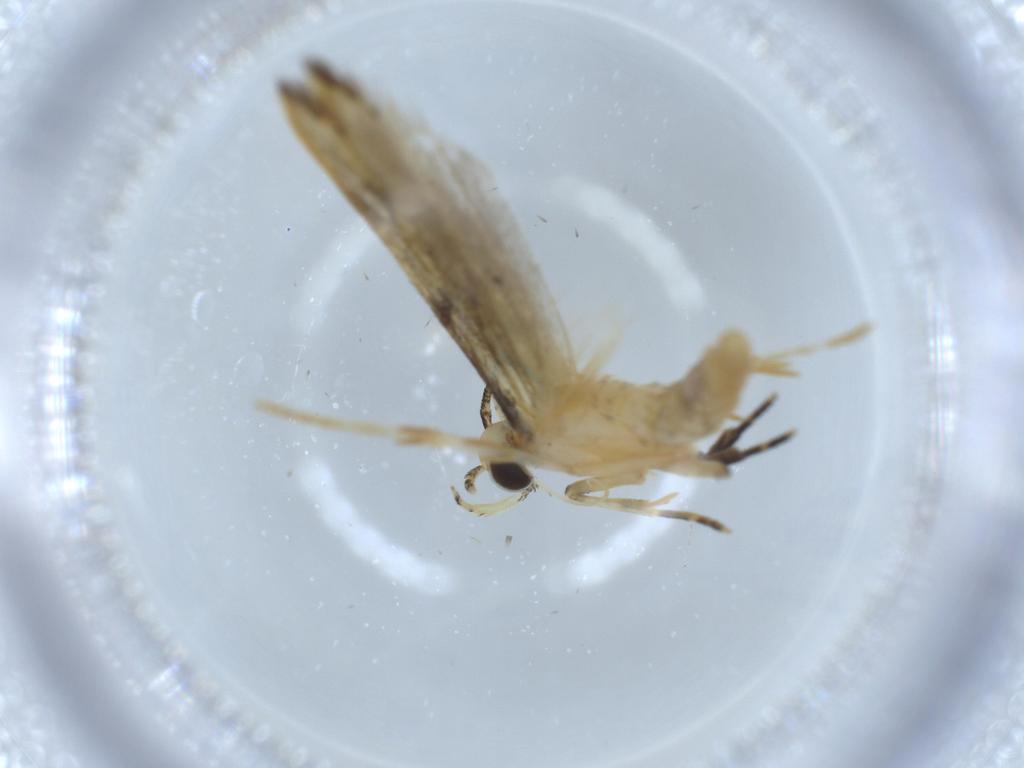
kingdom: Animalia
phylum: Arthropoda
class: Insecta
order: Lepidoptera
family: Autostichidae
